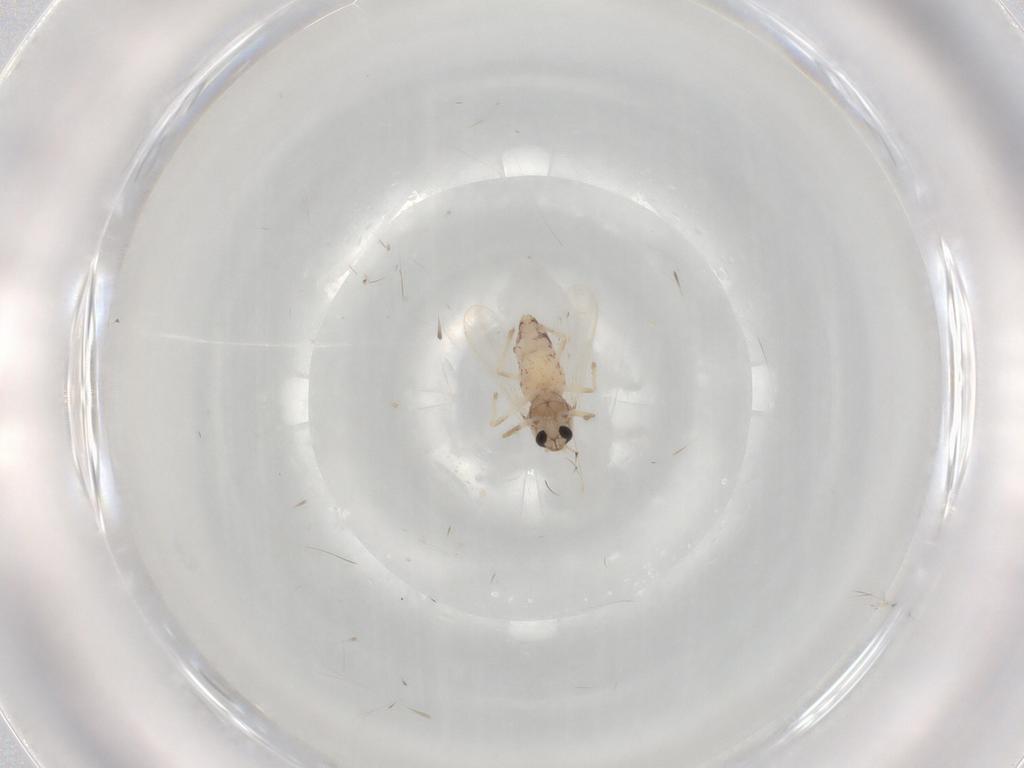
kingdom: Animalia
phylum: Arthropoda
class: Insecta
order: Diptera
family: Chironomidae
